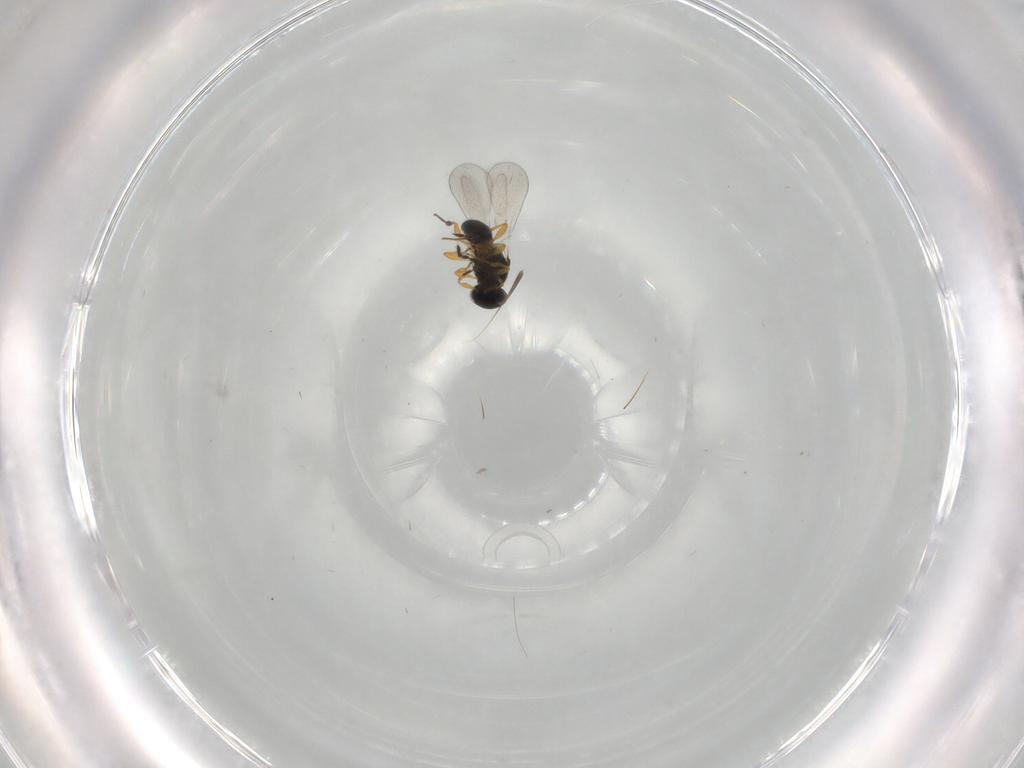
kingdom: Animalia
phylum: Arthropoda
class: Insecta
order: Hymenoptera
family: Platygastridae
